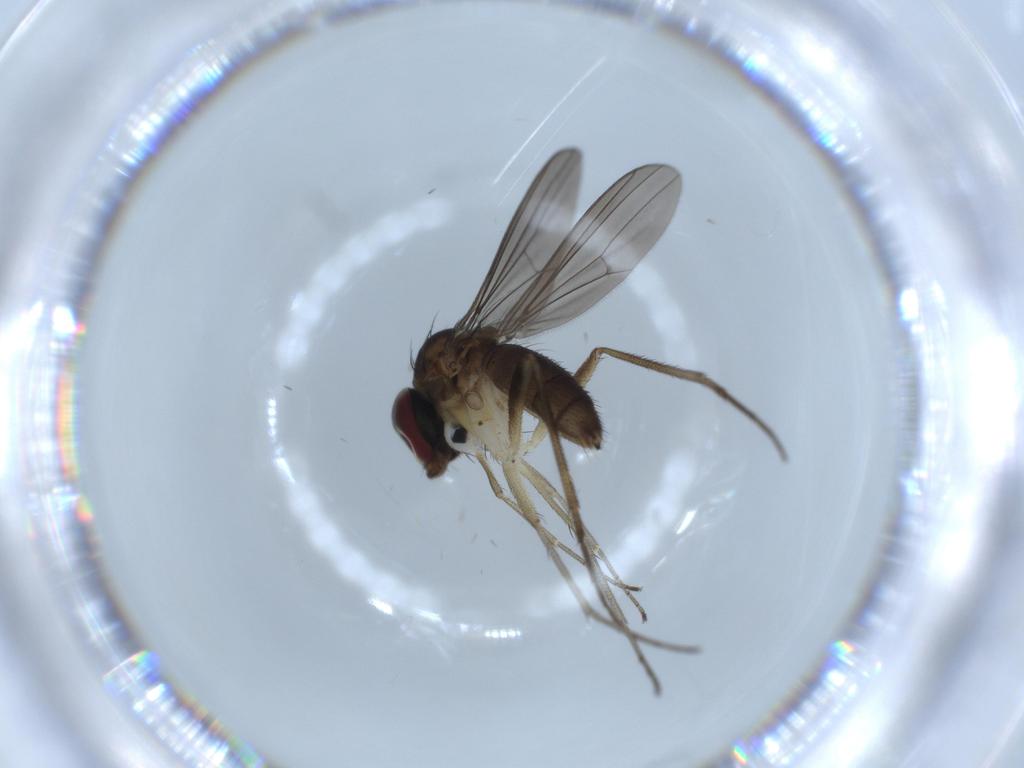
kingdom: Animalia
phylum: Arthropoda
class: Insecta
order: Diptera
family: Dolichopodidae
